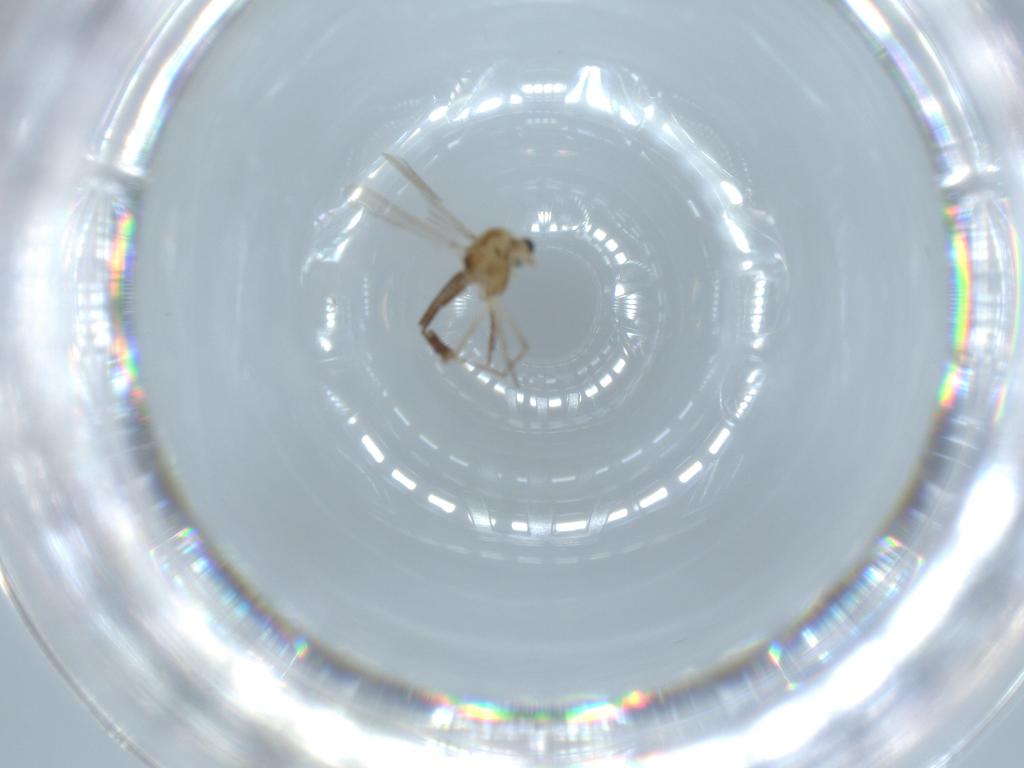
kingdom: Animalia
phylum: Arthropoda
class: Insecta
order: Diptera
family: Chironomidae
